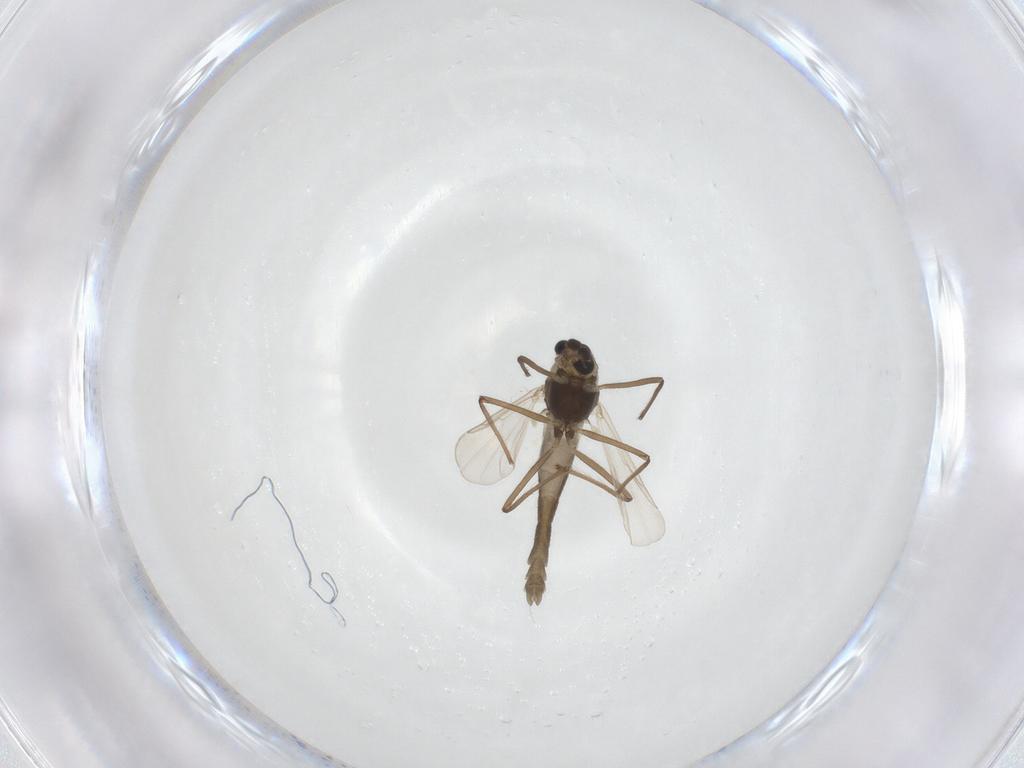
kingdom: Animalia
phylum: Arthropoda
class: Insecta
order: Diptera
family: Chironomidae
